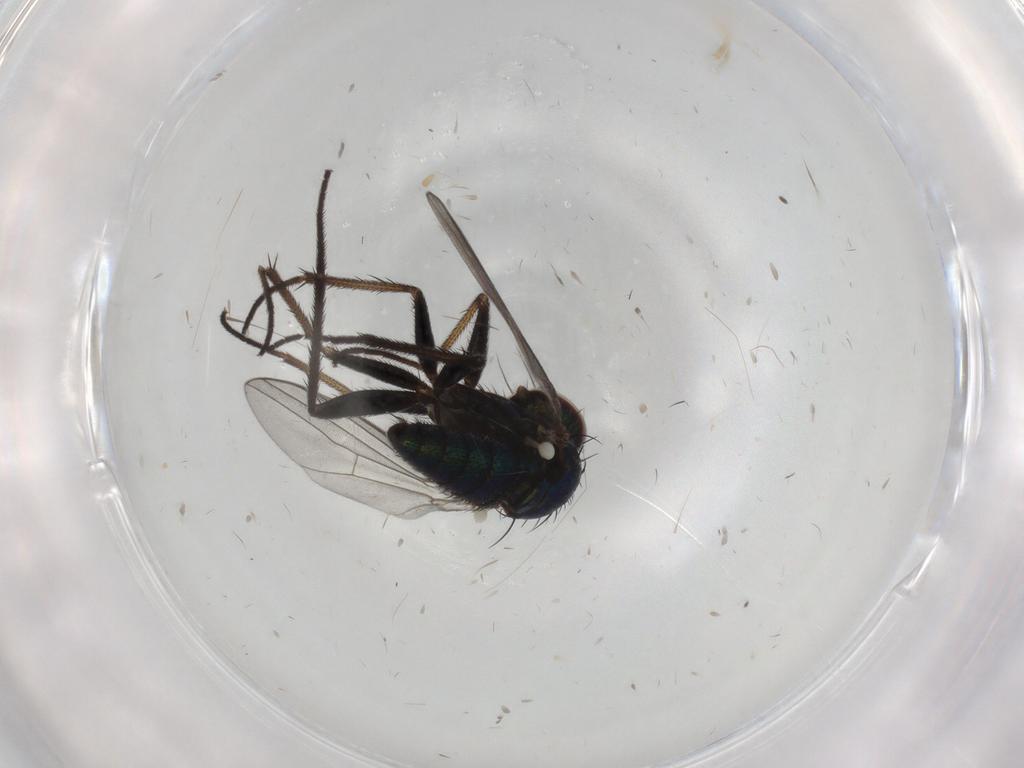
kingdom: Animalia
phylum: Arthropoda
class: Insecta
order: Diptera
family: Dolichopodidae
